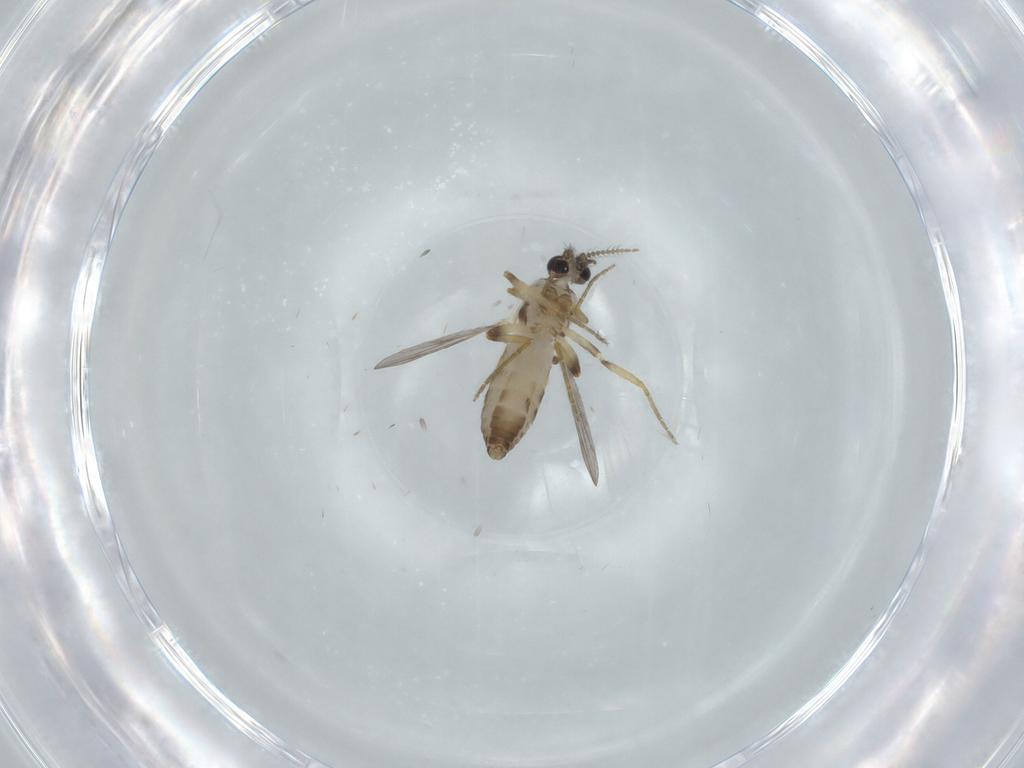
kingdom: Animalia
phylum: Arthropoda
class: Insecta
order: Diptera
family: Ceratopogonidae
